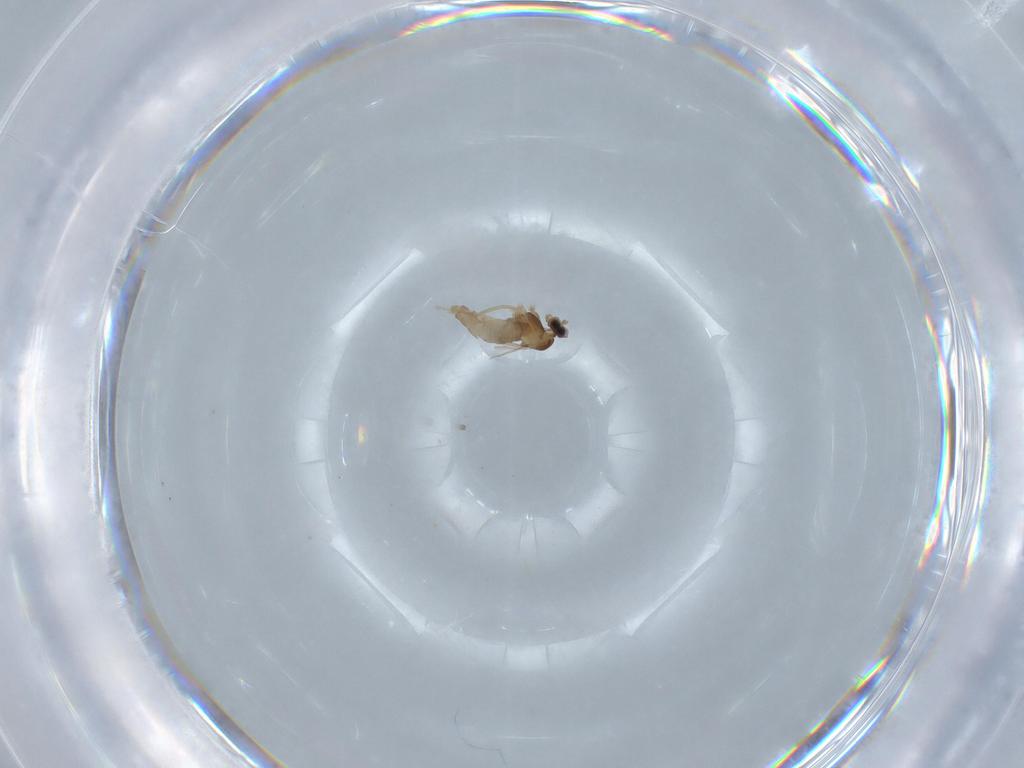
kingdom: Animalia
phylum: Arthropoda
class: Insecta
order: Diptera
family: Cecidomyiidae
